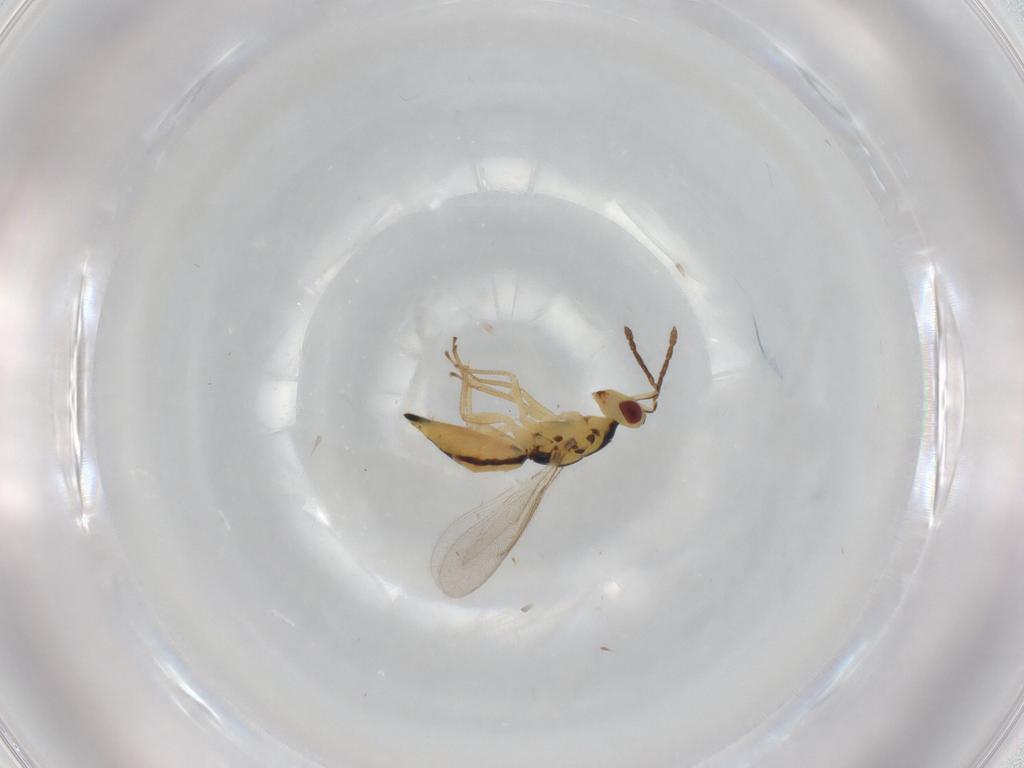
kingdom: Animalia
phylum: Arthropoda
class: Insecta
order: Hymenoptera
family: Eulophidae
